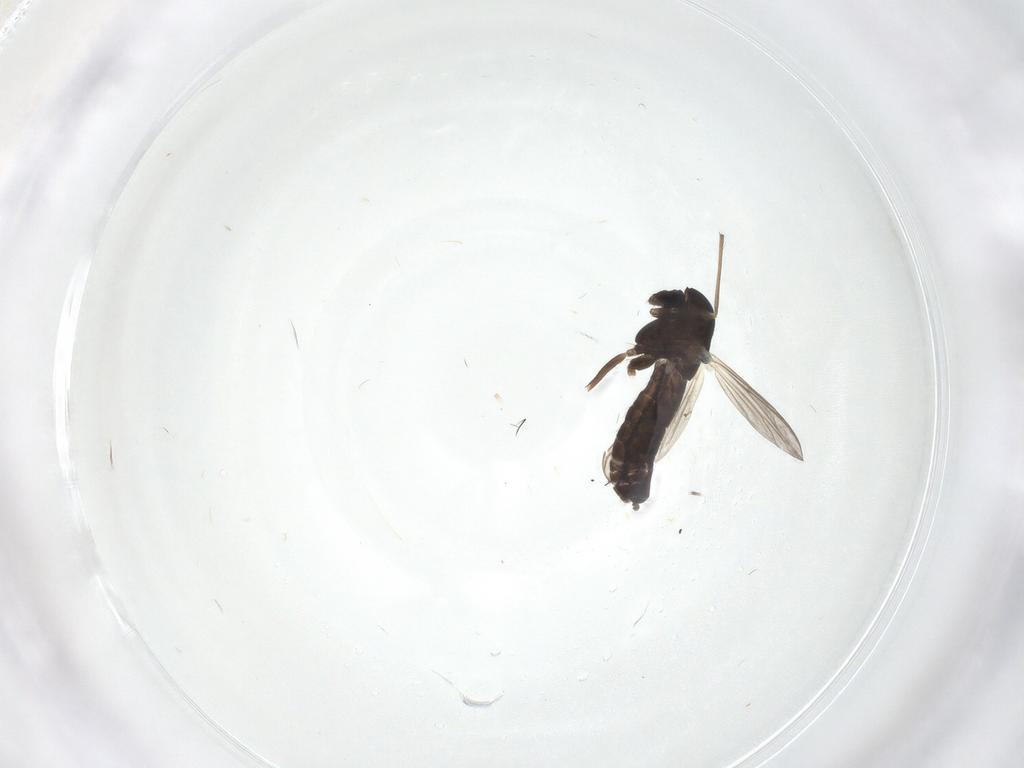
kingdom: Animalia
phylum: Arthropoda
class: Insecta
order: Diptera
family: Chironomidae
